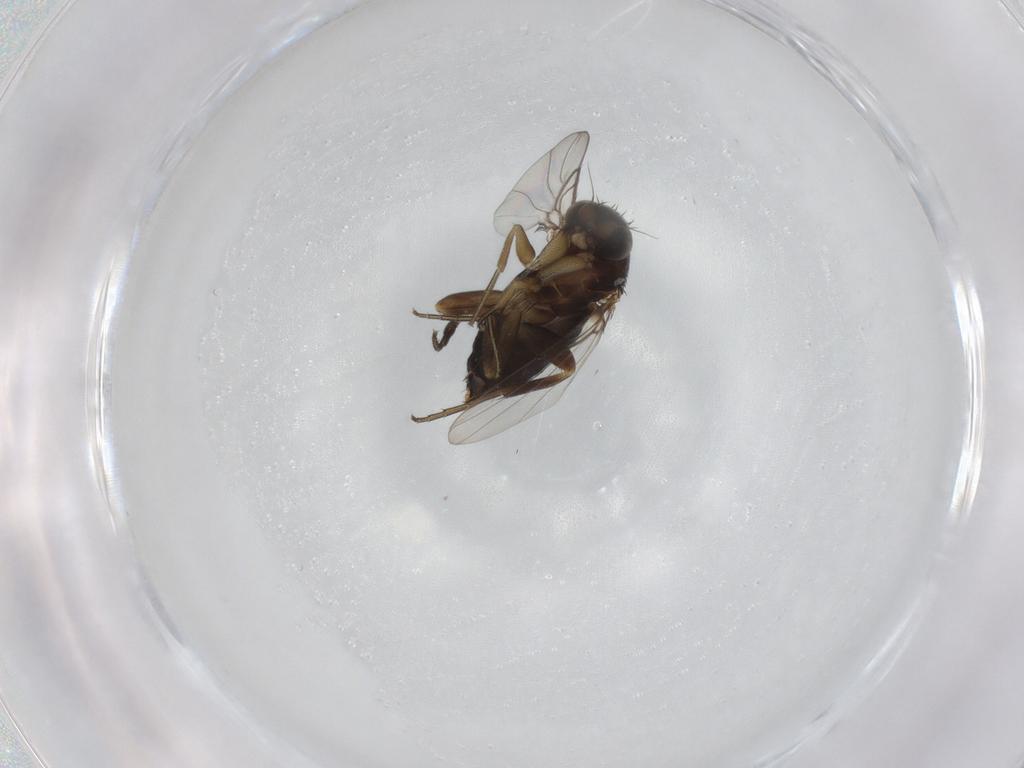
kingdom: Animalia
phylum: Arthropoda
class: Insecta
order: Diptera
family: Phoridae
